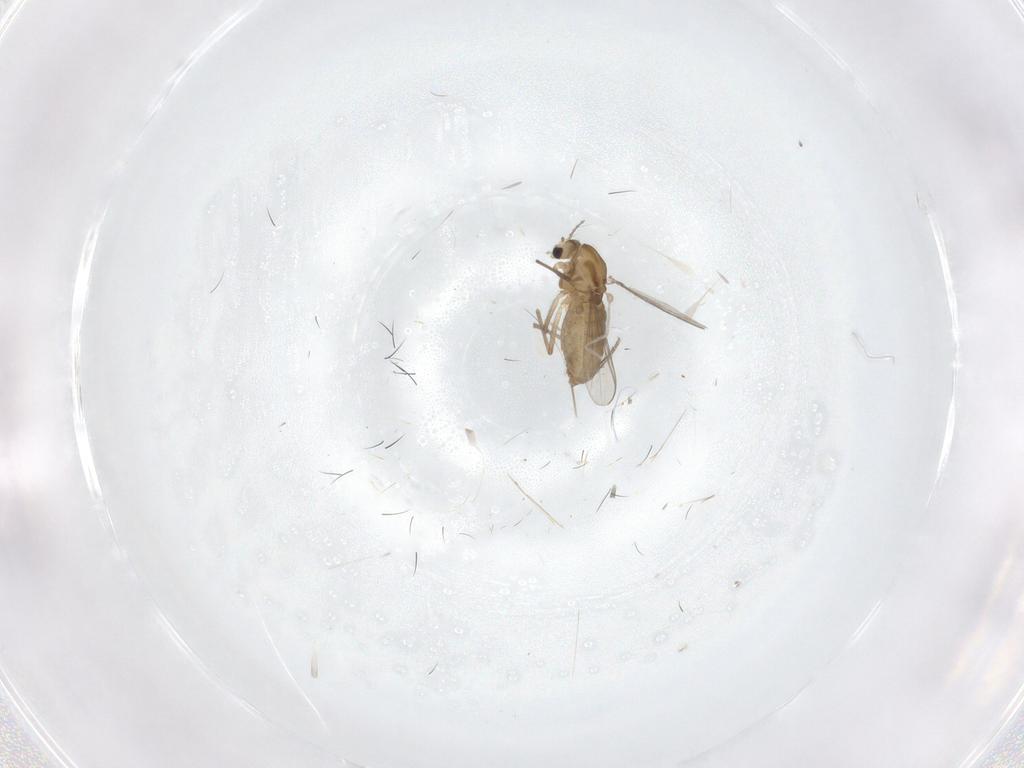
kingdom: Animalia
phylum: Arthropoda
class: Insecta
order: Diptera
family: Chironomidae
